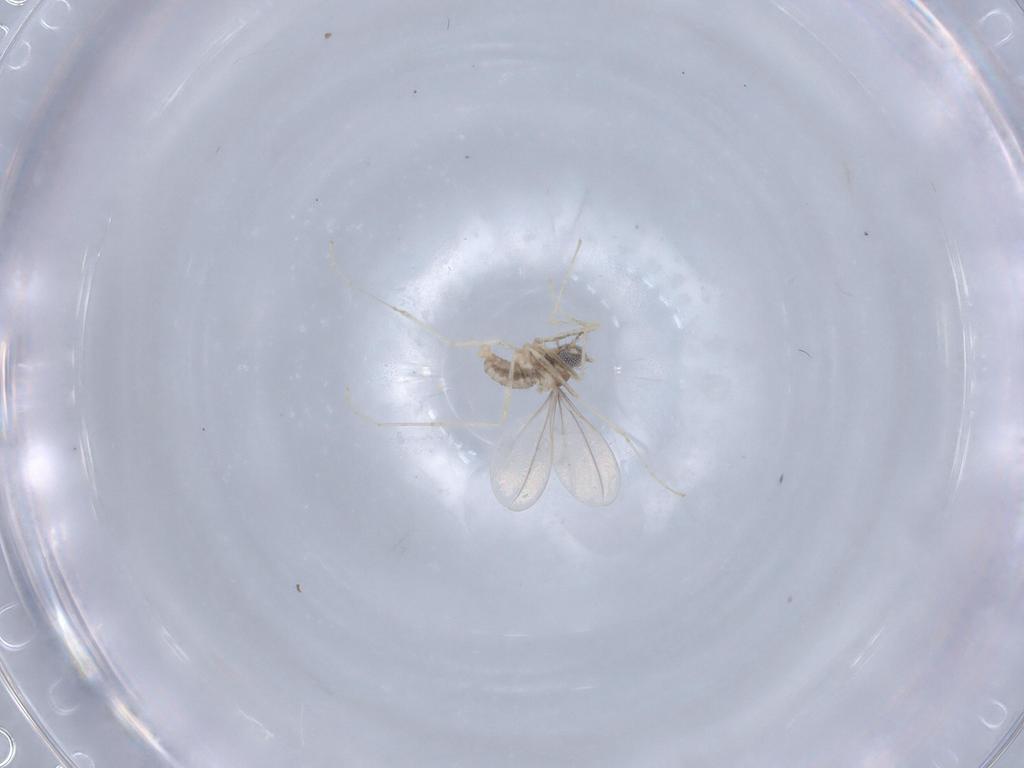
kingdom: Animalia
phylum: Arthropoda
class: Insecta
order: Diptera
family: Cecidomyiidae
